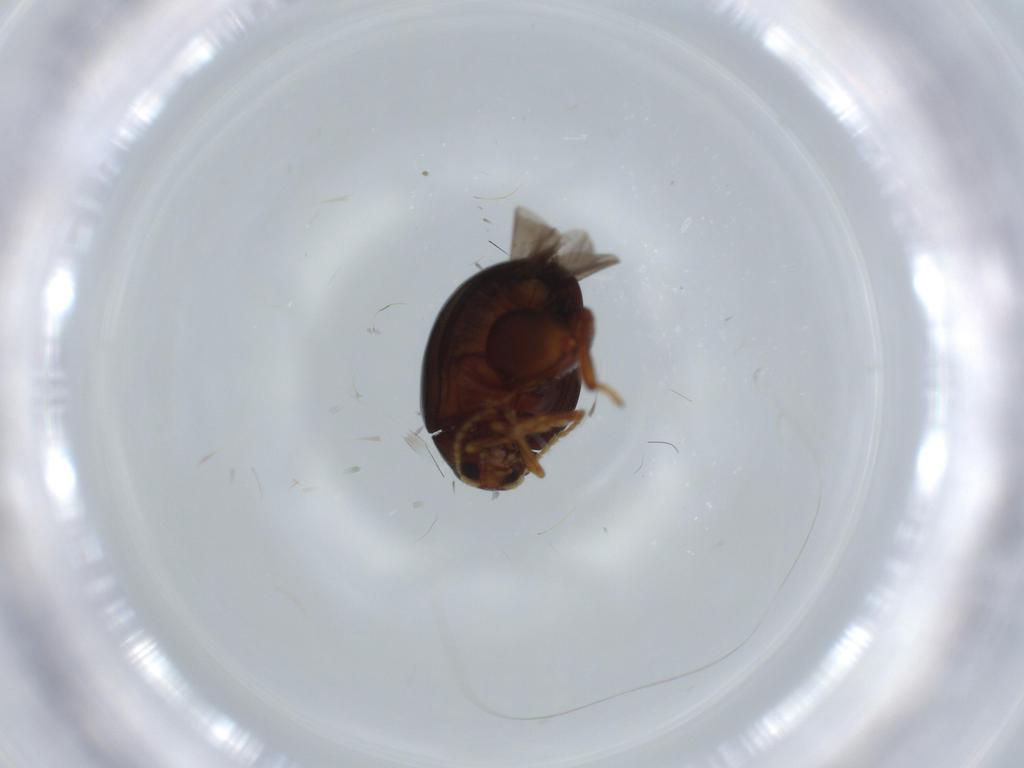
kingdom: Animalia
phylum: Arthropoda
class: Insecta
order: Coleoptera
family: Chrysomelidae
